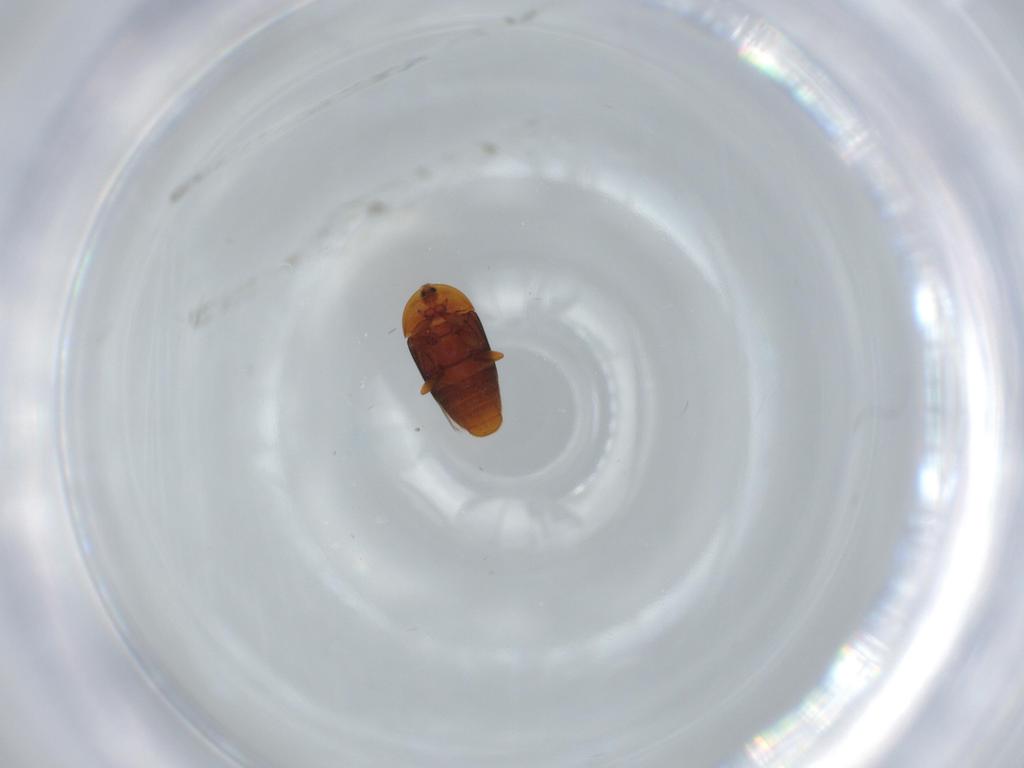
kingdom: Animalia
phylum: Arthropoda
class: Insecta
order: Coleoptera
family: Corylophidae
